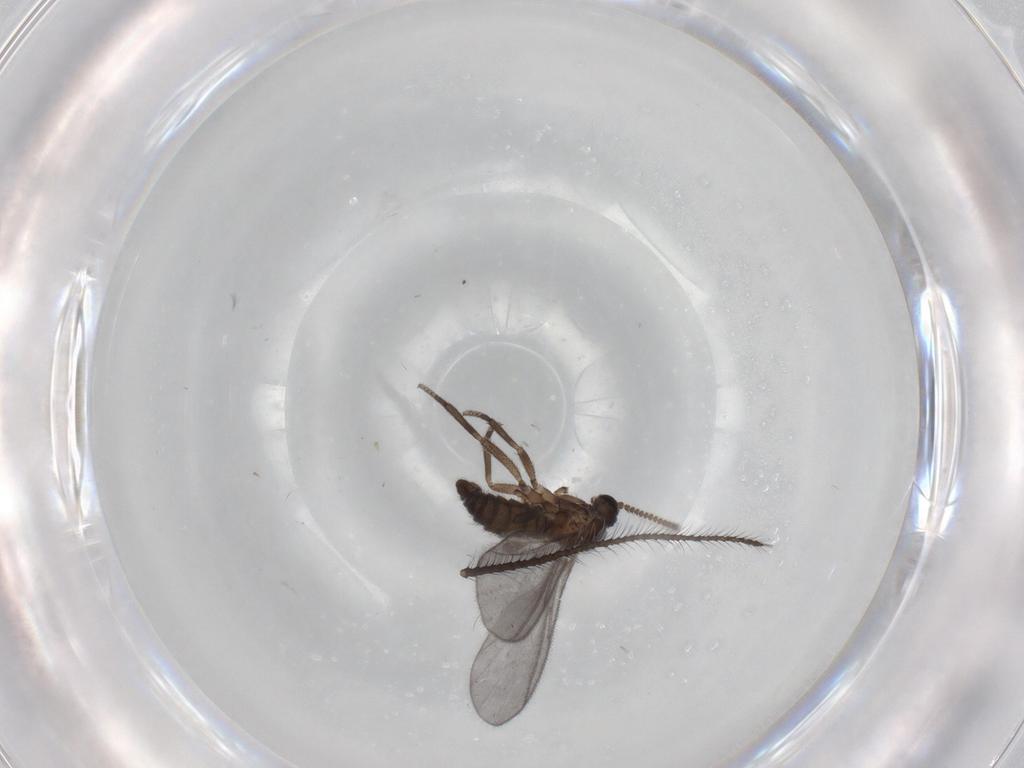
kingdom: Animalia
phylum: Arthropoda
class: Insecta
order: Diptera
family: Sciaridae
